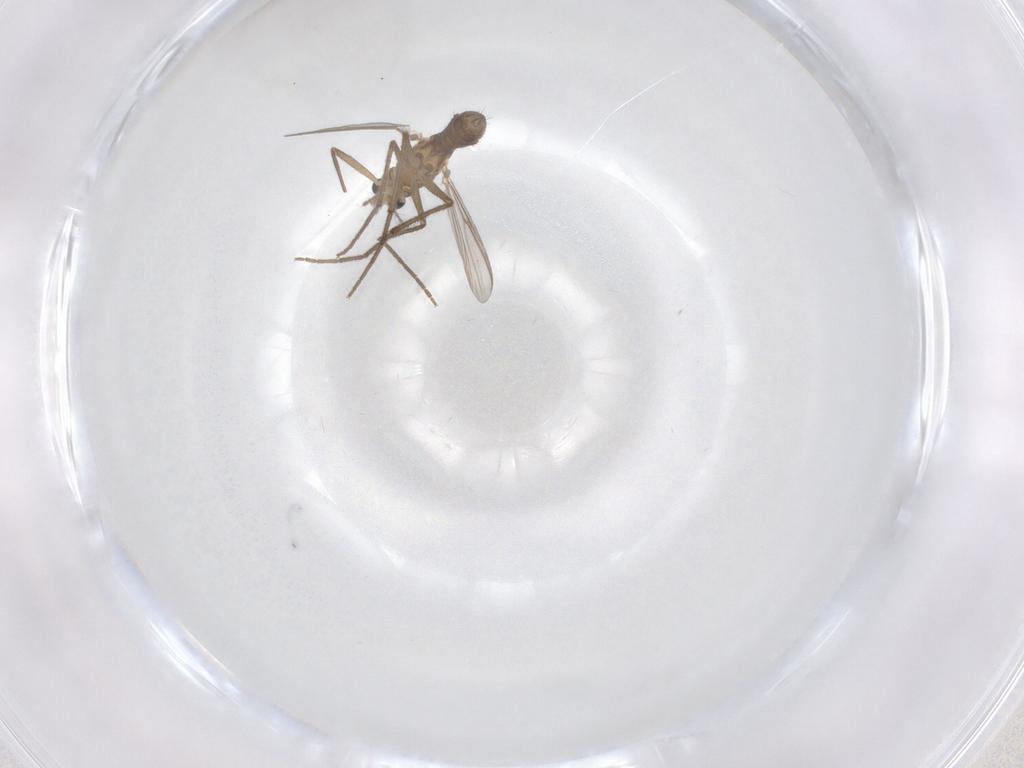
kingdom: Animalia
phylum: Arthropoda
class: Insecta
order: Diptera
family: Chironomidae
